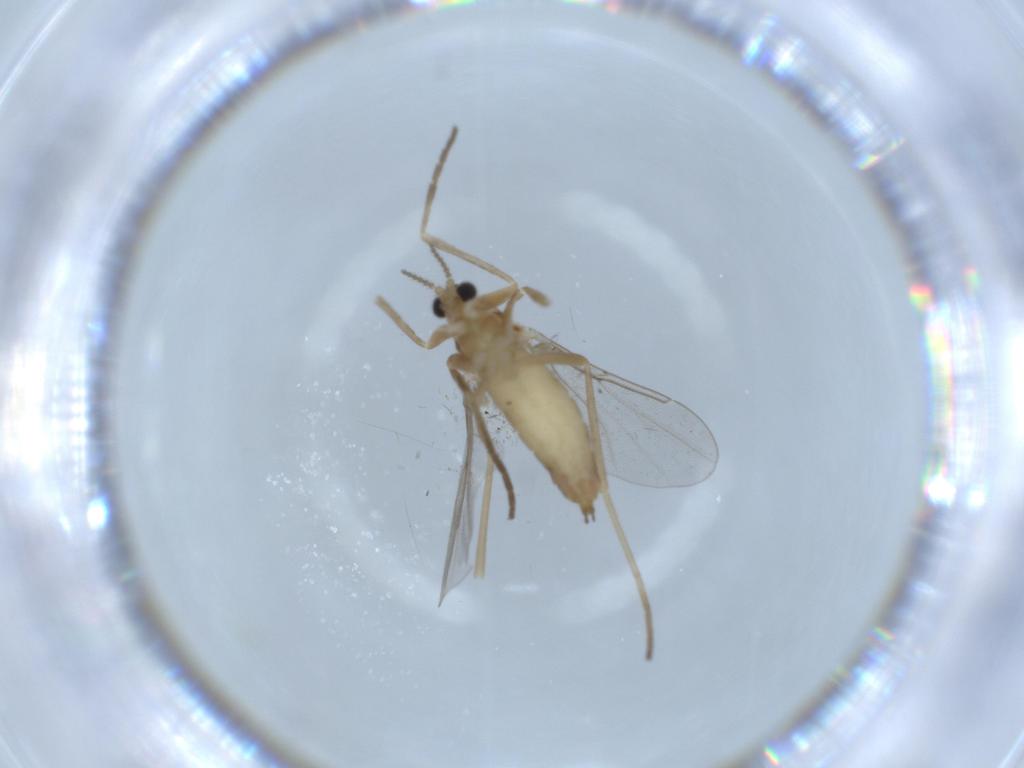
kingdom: Animalia
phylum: Arthropoda
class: Insecta
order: Diptera
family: Cecidomyiidae
